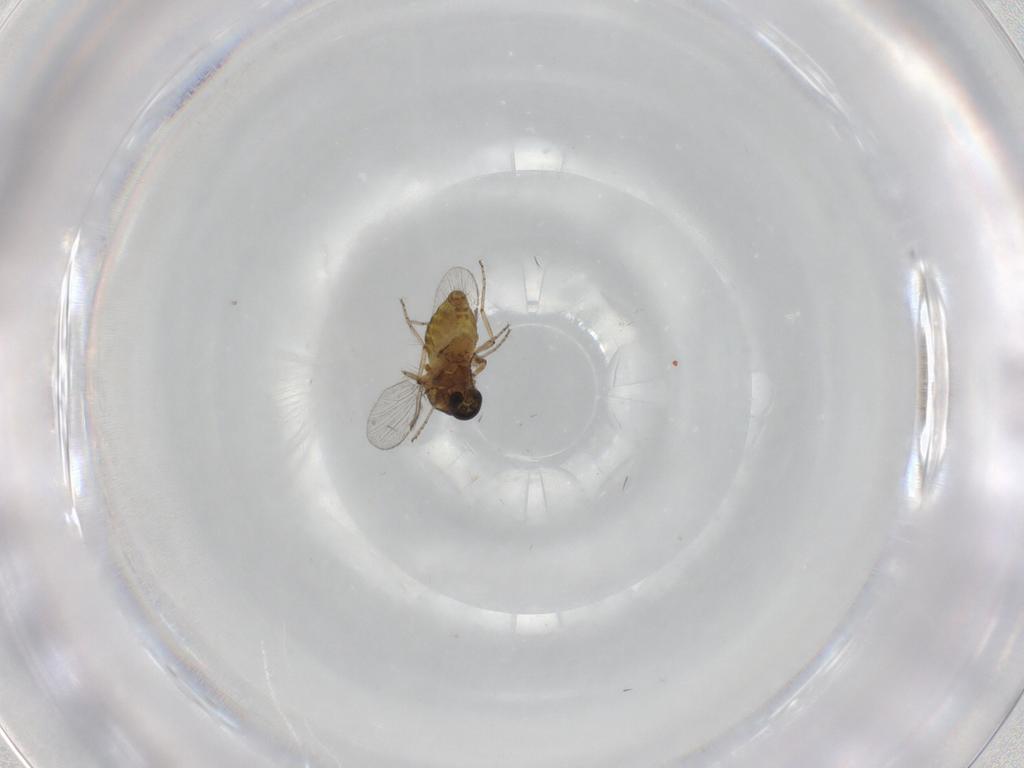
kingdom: Animalia
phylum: Arthropoda
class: Insecta
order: Diptera
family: Ceratopogonidae
